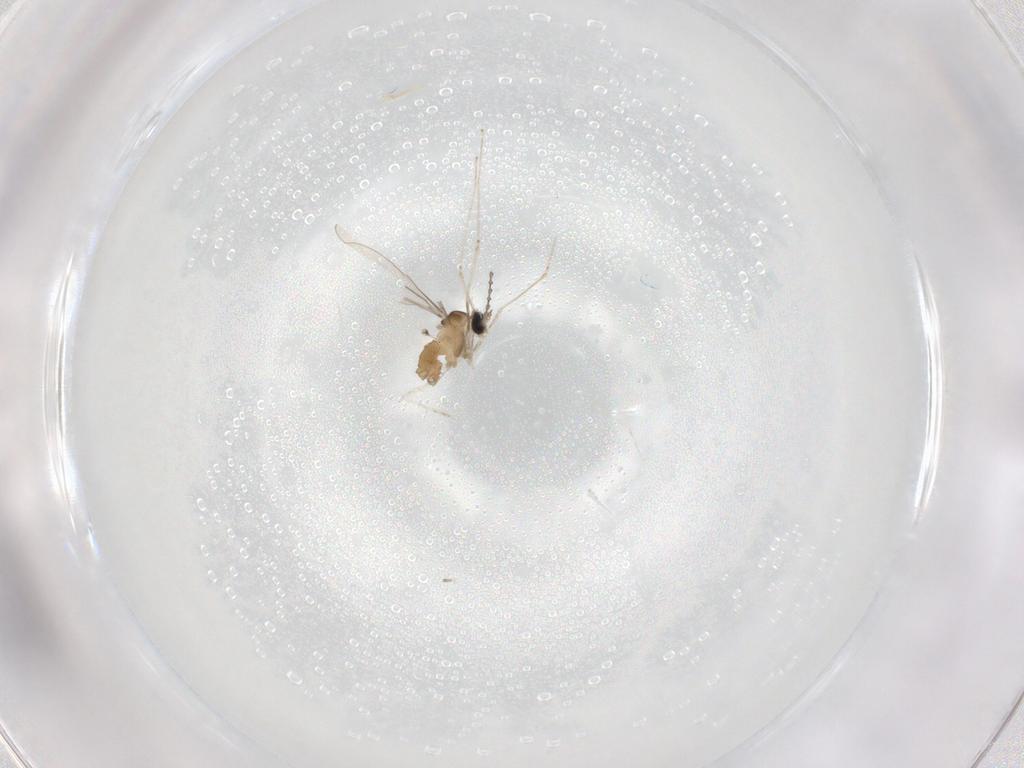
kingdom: Animalia
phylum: Arthropoda
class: Insecta
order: Diptera
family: Cecidomyiidae
